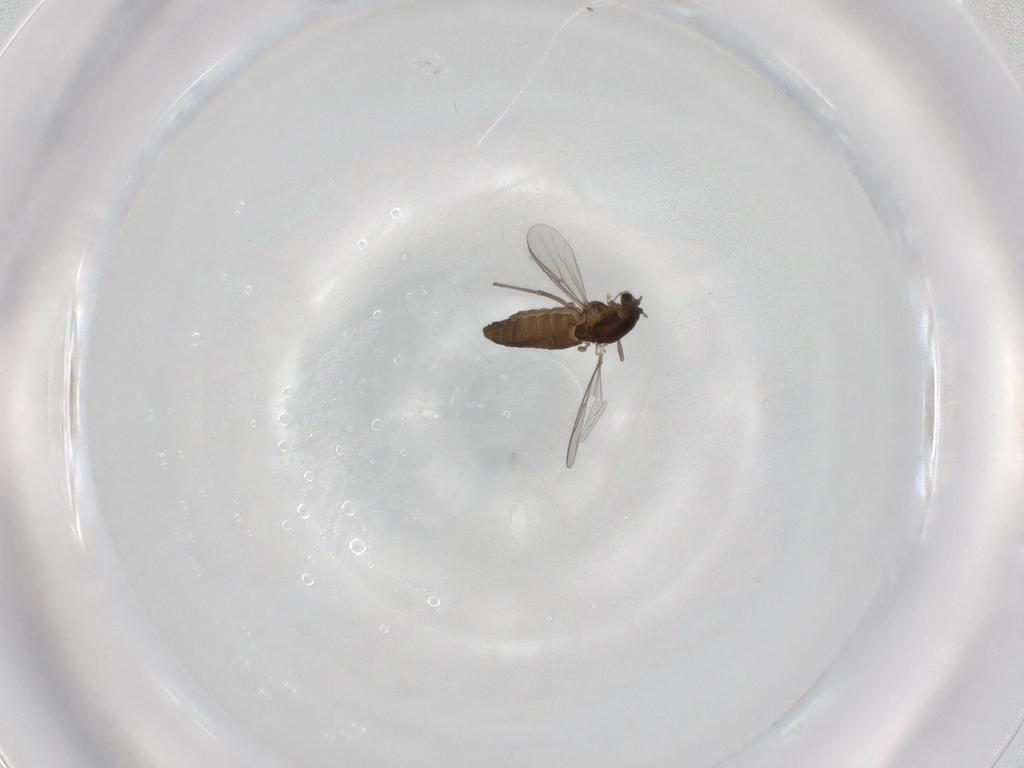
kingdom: Animalia
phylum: Arthropoda
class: Insecta
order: Diptera
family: Chironomidae
